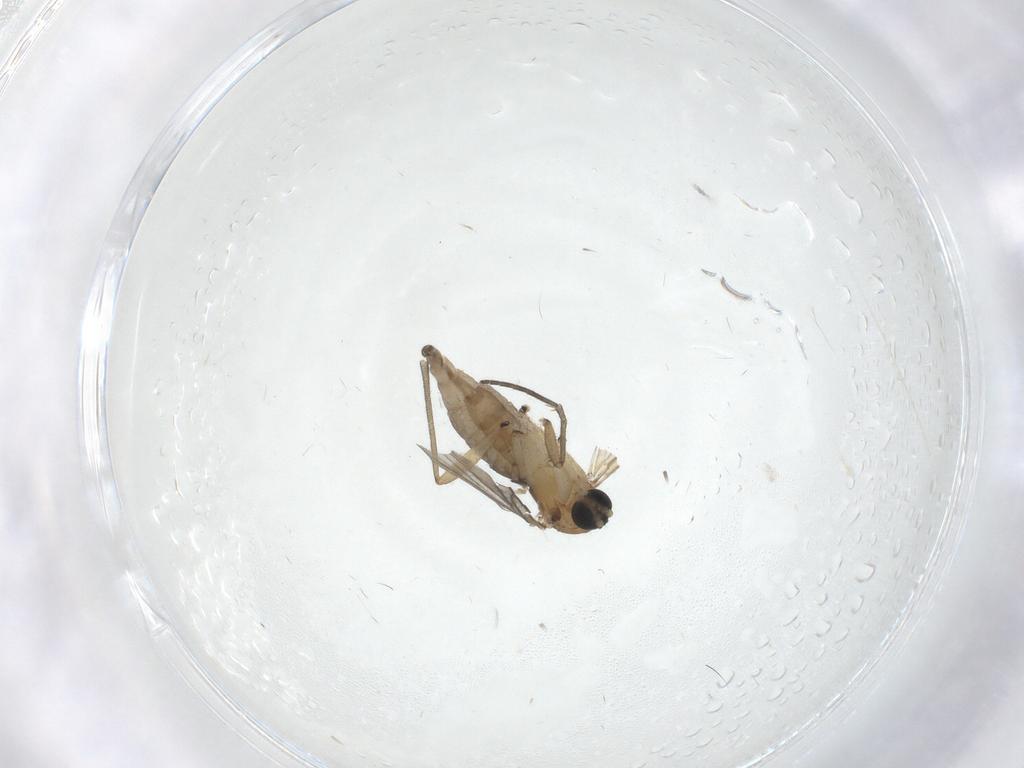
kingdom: Animalia
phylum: Arthropoda
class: Insecta
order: Diptera
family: Sciaridae
